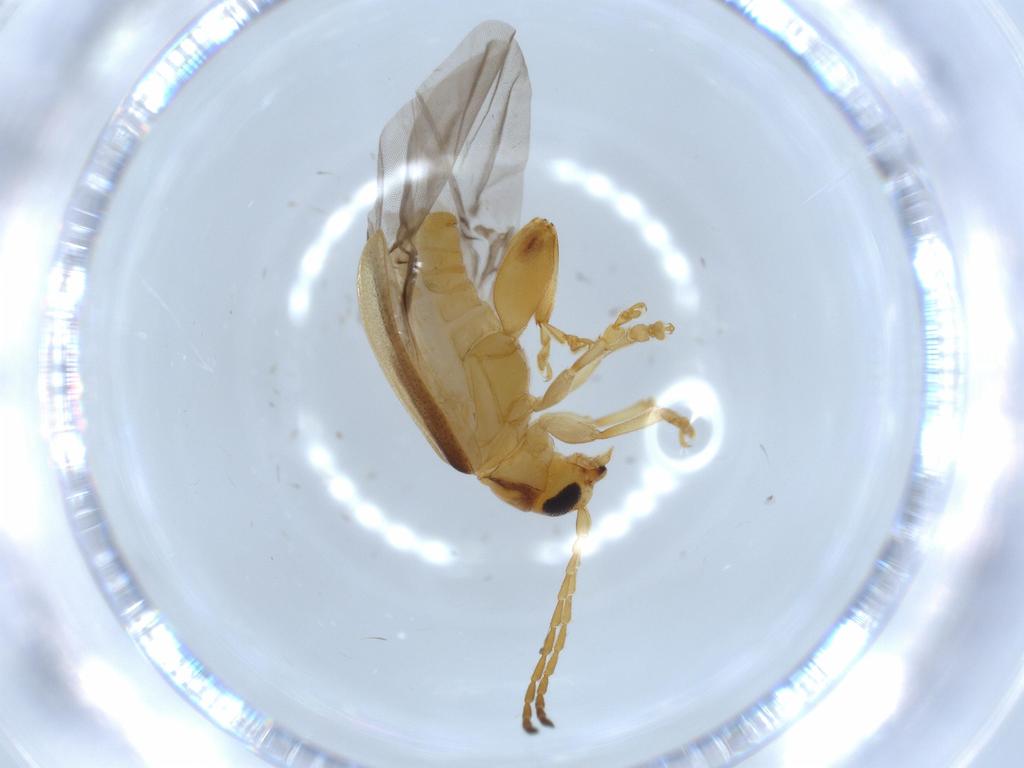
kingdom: Animalia
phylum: Arthropoda
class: Insecta
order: Coleoptera
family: Chrysomelidae
